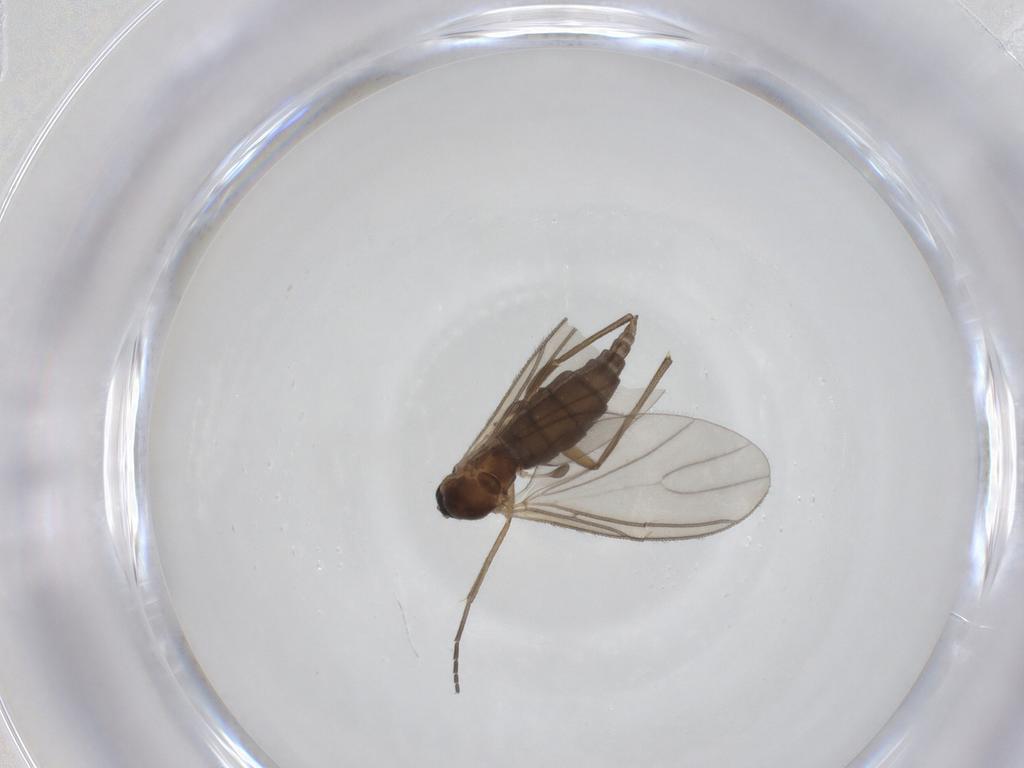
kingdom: Animalia
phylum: Arthropoda
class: Insecta
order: Diptera
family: Sciaridae
